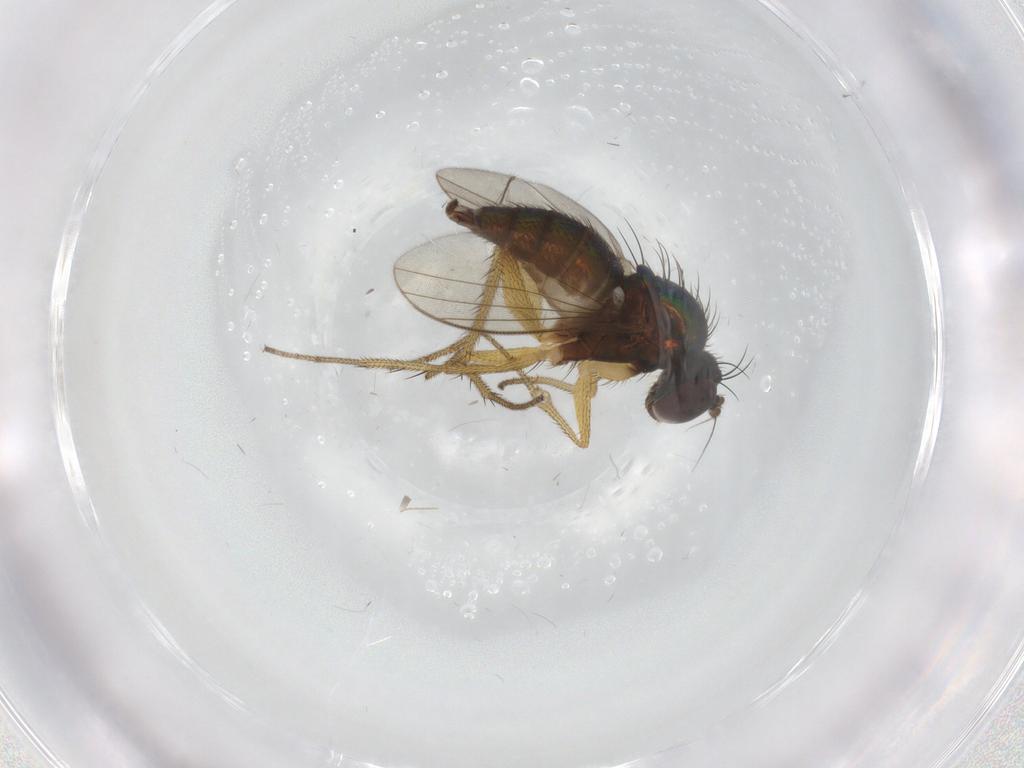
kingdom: Animalia
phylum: Arthropoda
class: Insecta
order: Diptera
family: Dolichopodidae
